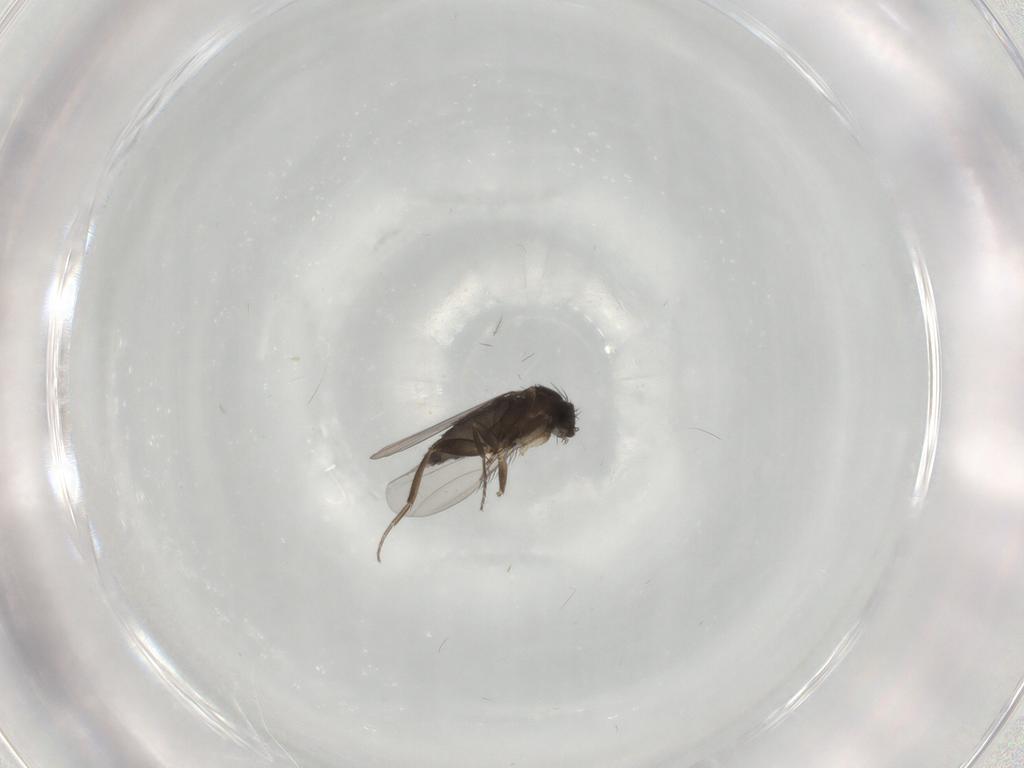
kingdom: Animalia
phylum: Arthropoda
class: Insecta
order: Diptera
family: Phoridae
